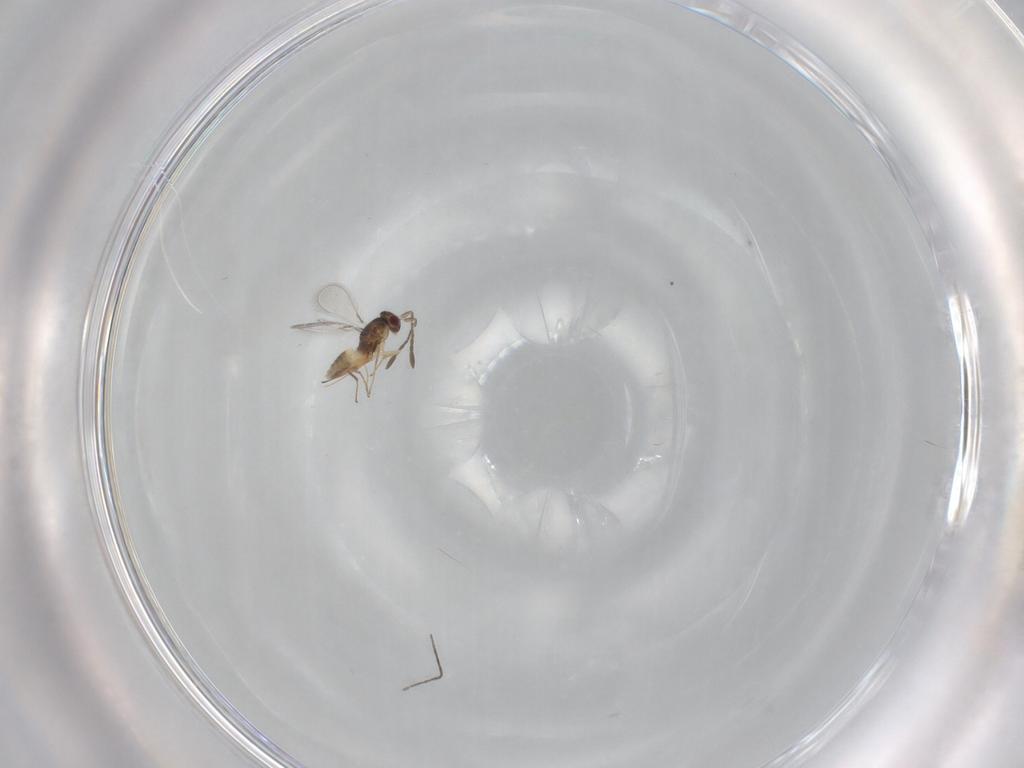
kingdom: Animalia
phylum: Arthropoda
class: Insecta
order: Hymenoptera
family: Mymaridae
